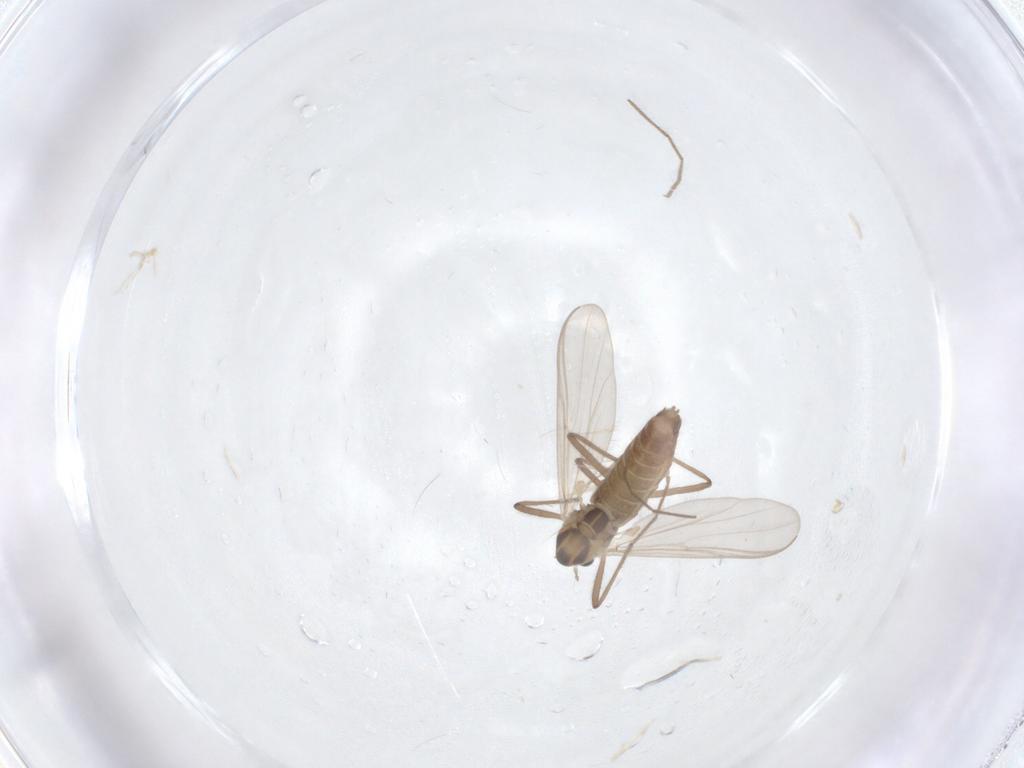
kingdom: Animalia
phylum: Arthropoda
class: Insecta
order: Diptera
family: Chironomidae
